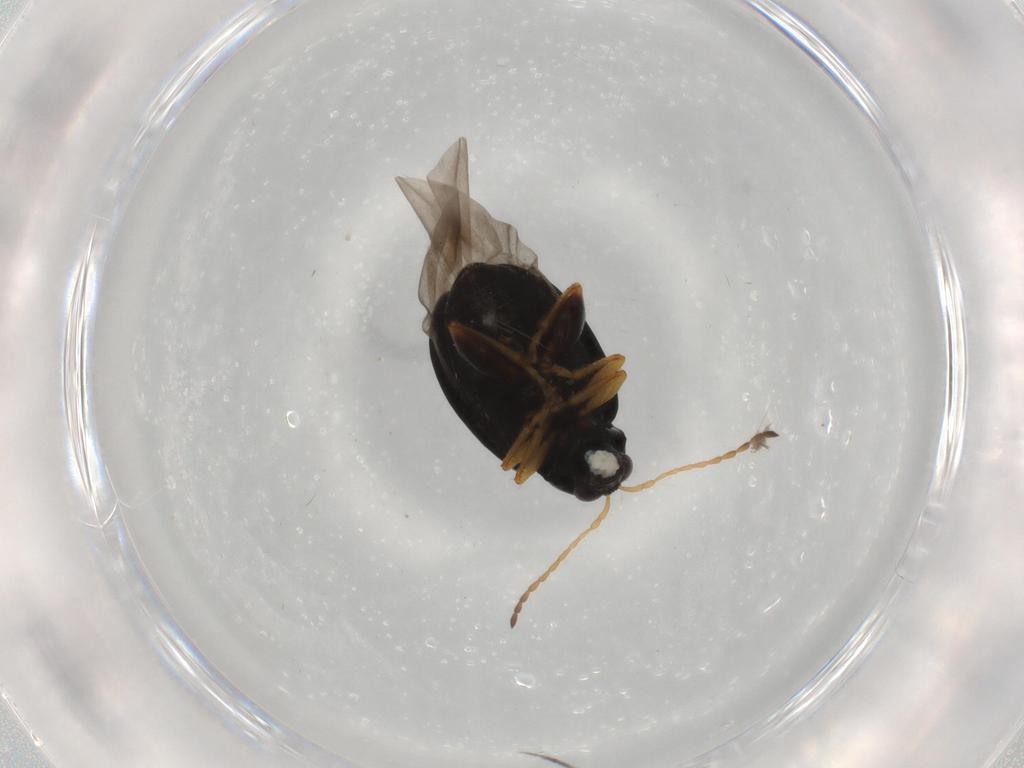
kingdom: Animalia
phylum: Arthropoda
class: Insecta
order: Coleoptera
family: Chrysomelidae
